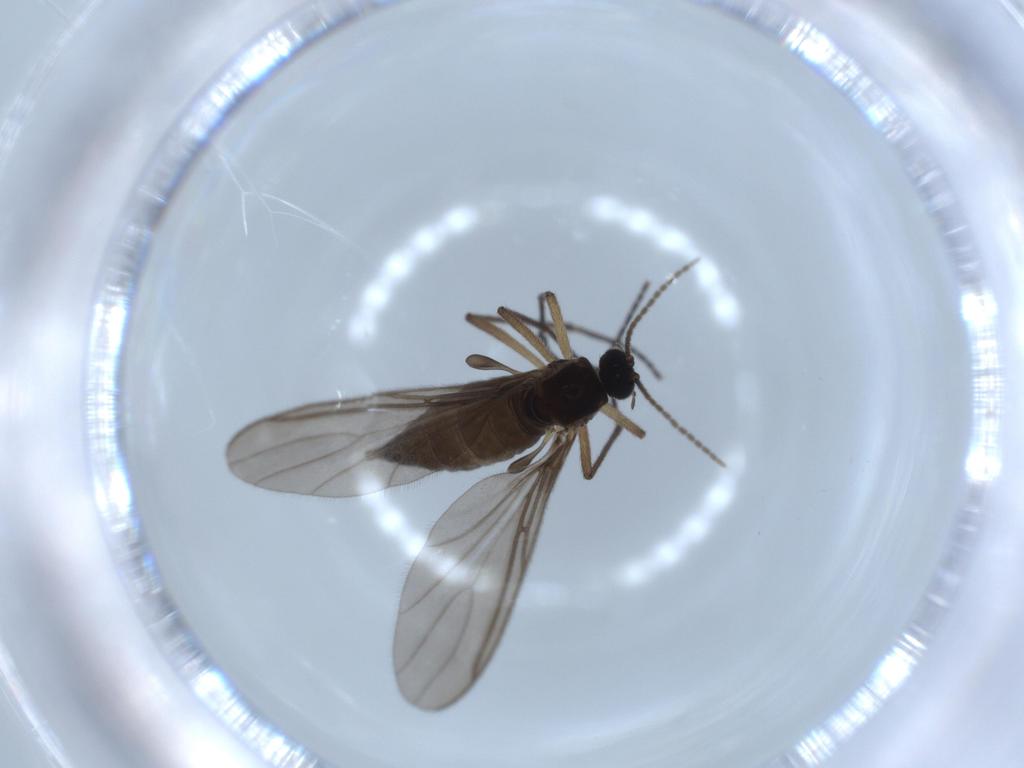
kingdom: Animalia
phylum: Arthropoda
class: Insecta
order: Diptera
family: Sciaridae
